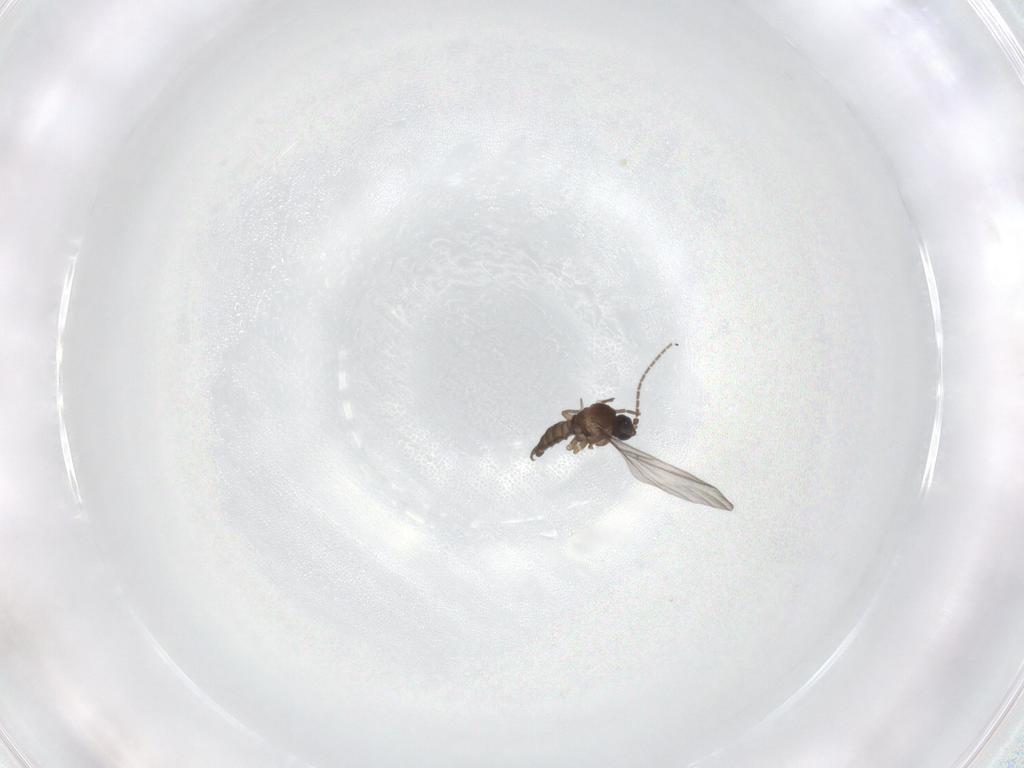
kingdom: Animalia
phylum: Arthropoda
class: Insecta
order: Diptera
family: Sciaridae
